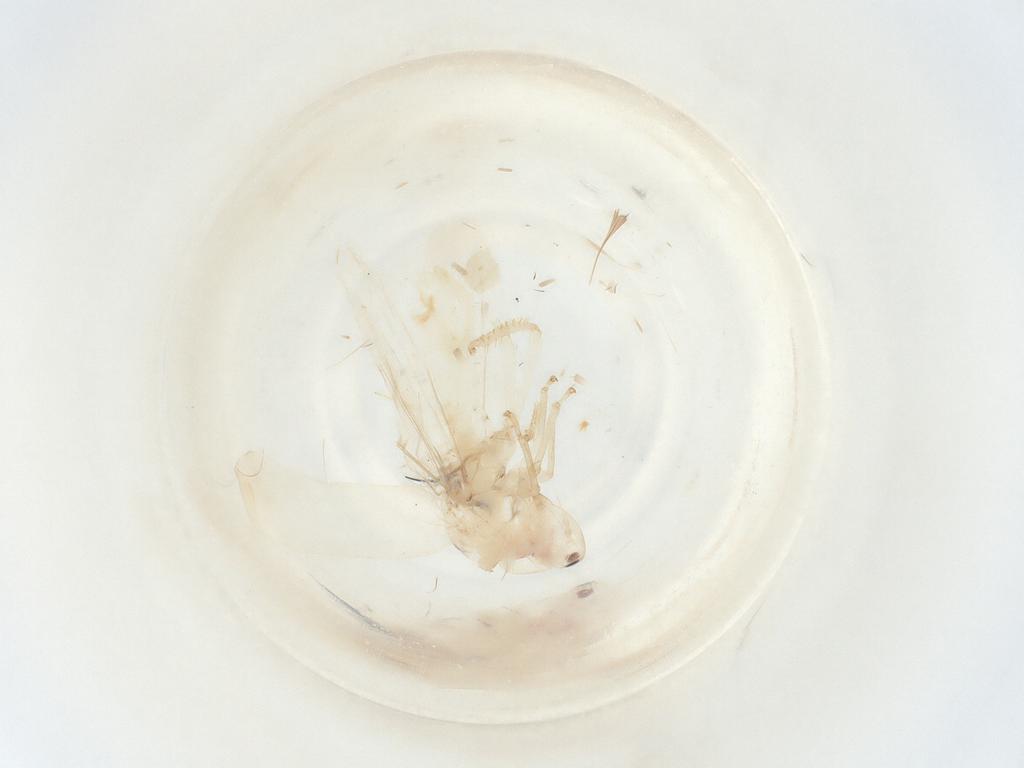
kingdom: Animalia
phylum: Arthropoda
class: Insecta
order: Hemiptera
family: Cicadellidae
